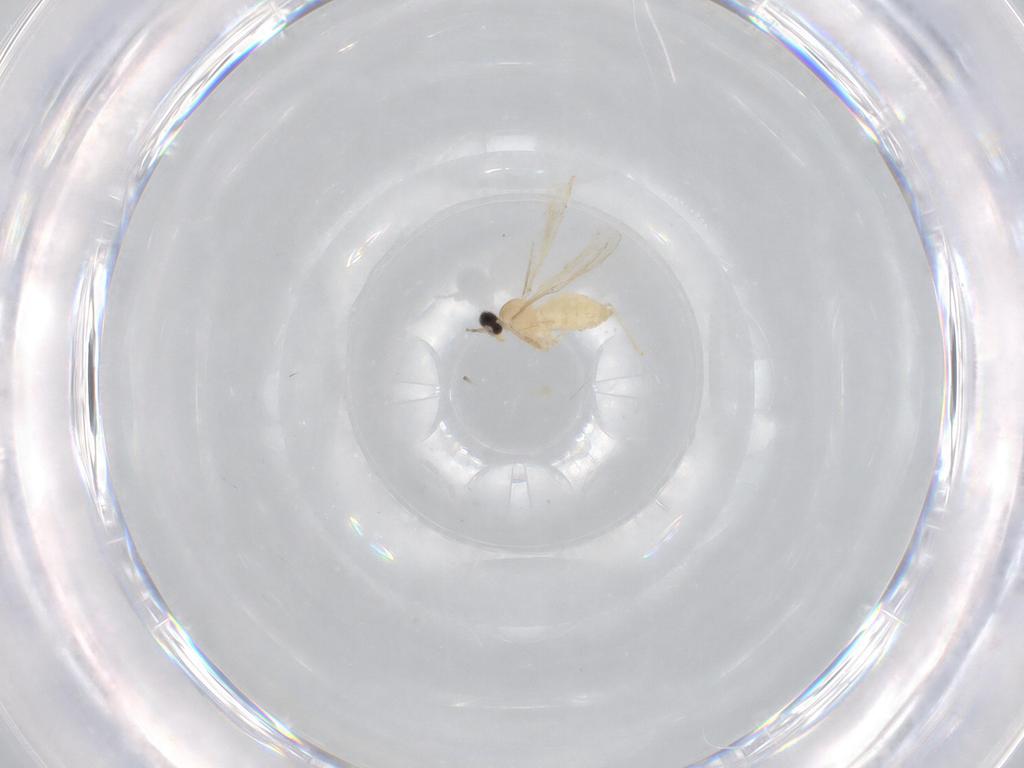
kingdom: Animalia
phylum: Arthropoda
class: Insecta
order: Diptera
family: Cecidomyiidae
